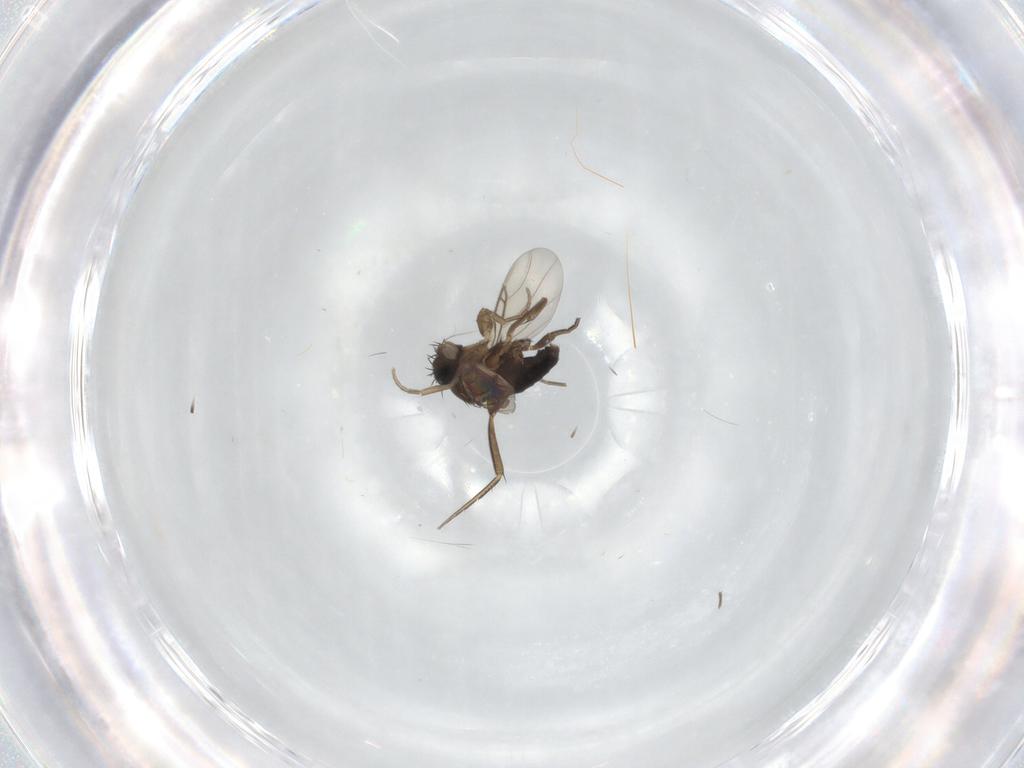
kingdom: Animalia
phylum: Arthropoda
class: Insecta
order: Diptera
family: Phoridae
